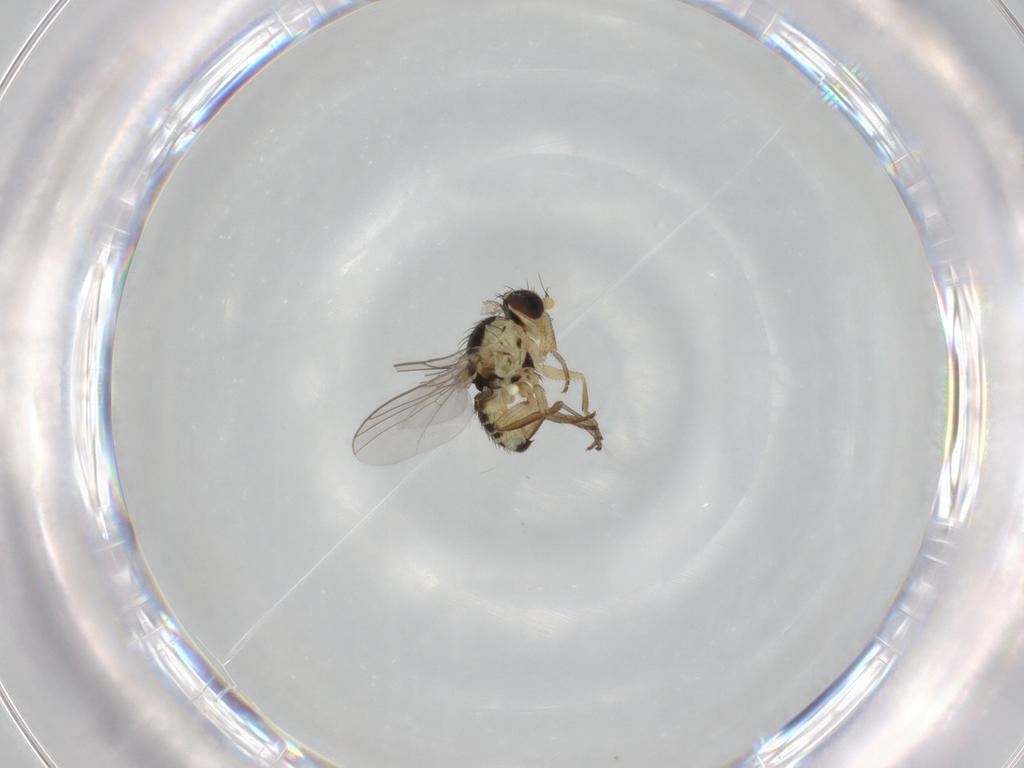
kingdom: Animalia
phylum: Arthropoda
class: Insecta
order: Diptera
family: Agromyzidae
